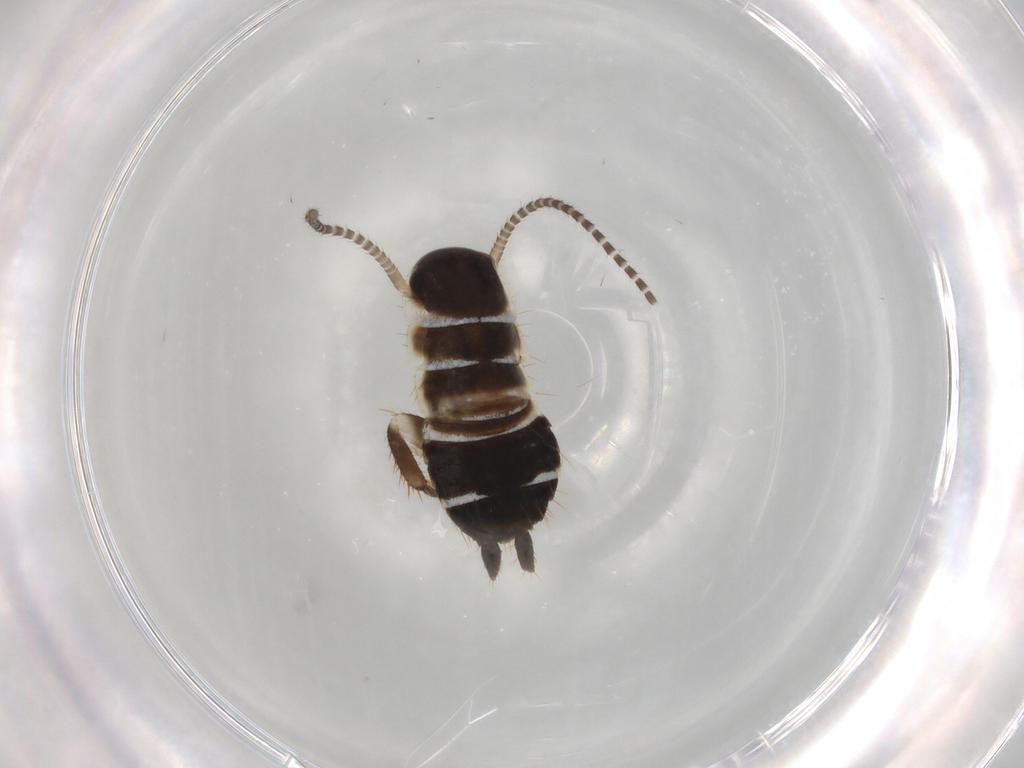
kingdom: Animalia
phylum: Arthropoda
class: Insecta
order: Blattodea
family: Ectobiidae
